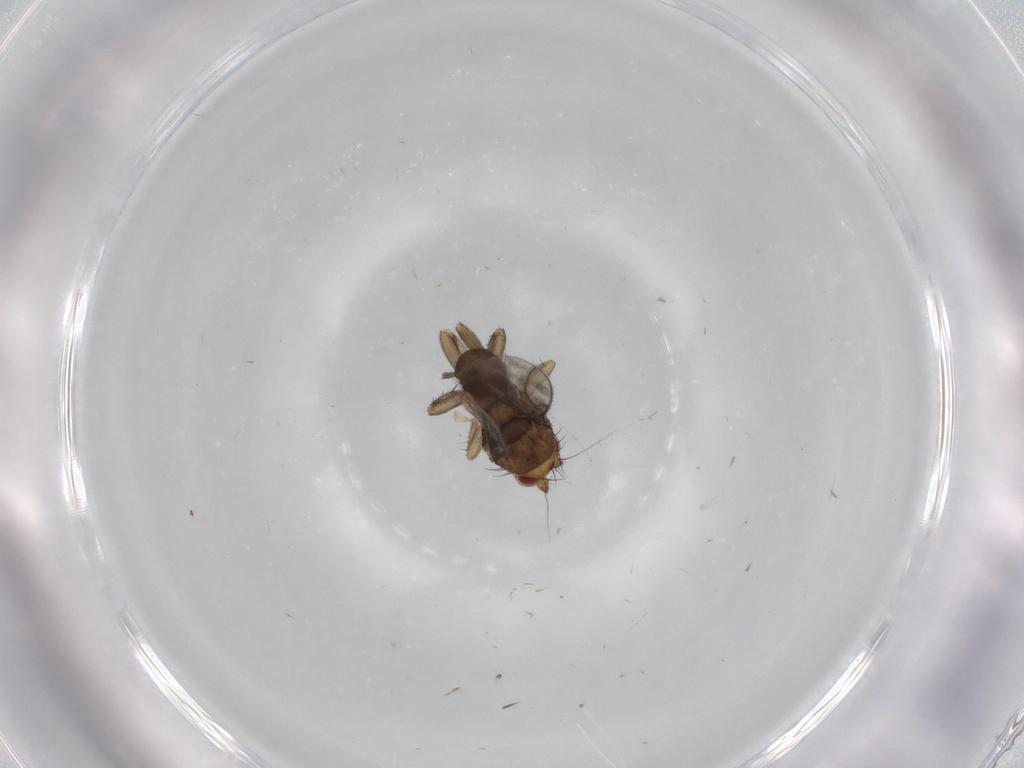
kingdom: Animalia
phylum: Arthropoda
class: Insecta
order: Diptera
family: Sphaeroceridae
